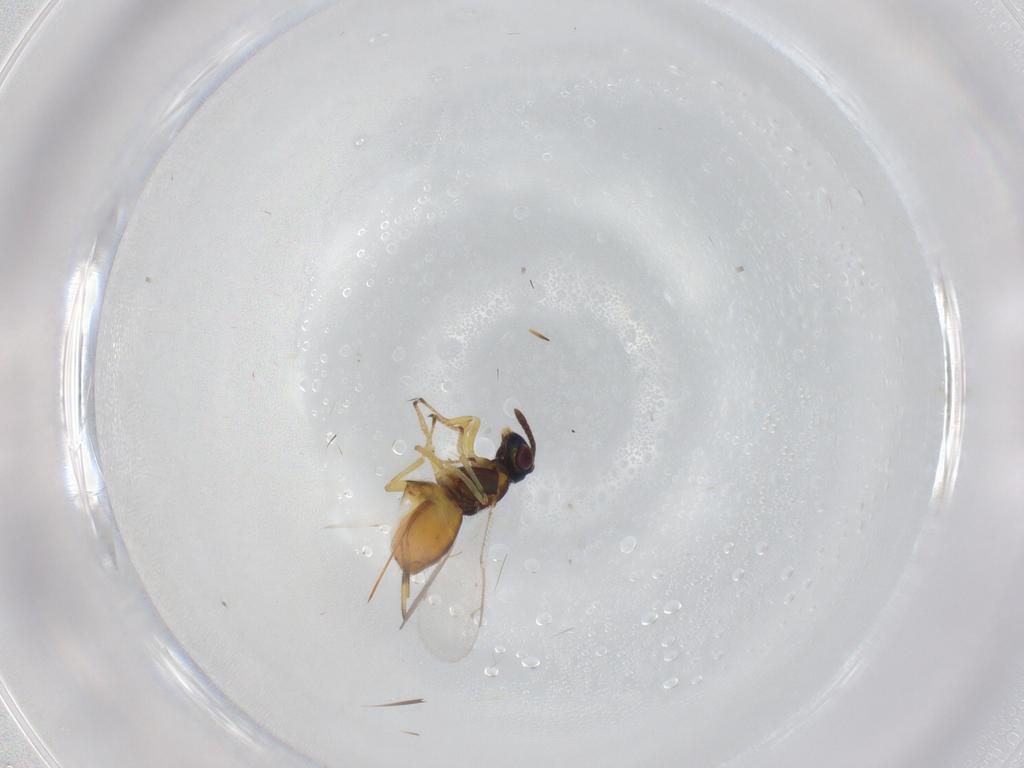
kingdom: Animalia
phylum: Arthropoda
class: Insecta
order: Hymenoptera
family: Eupelmidae
